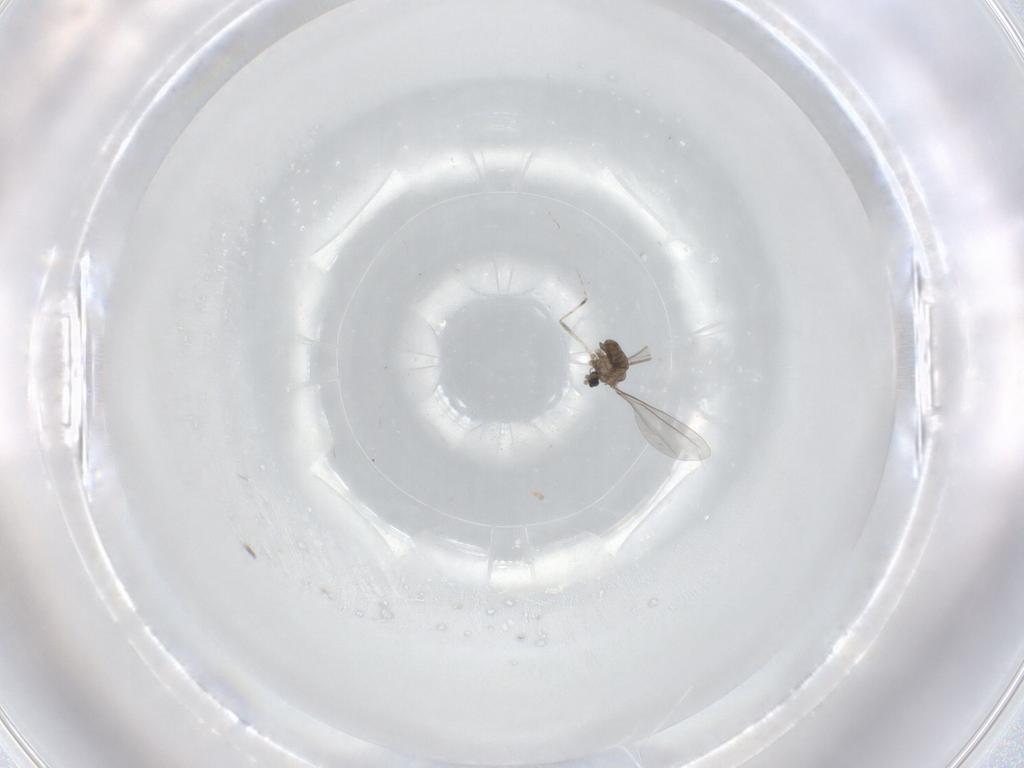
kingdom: Animalia
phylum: Arthropoda
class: Insecta
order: Diptera
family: Cecidomyiidae
